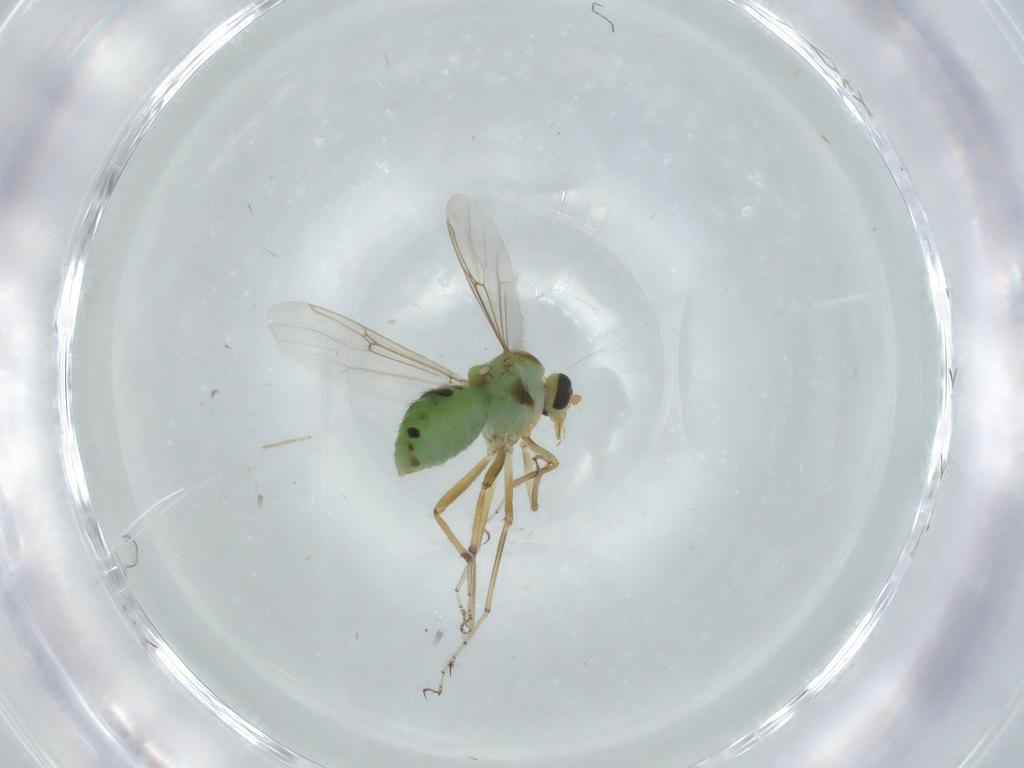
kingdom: Animalia
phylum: Arthropoda
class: Insecta
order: Diptera
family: Ceratopogonidae
